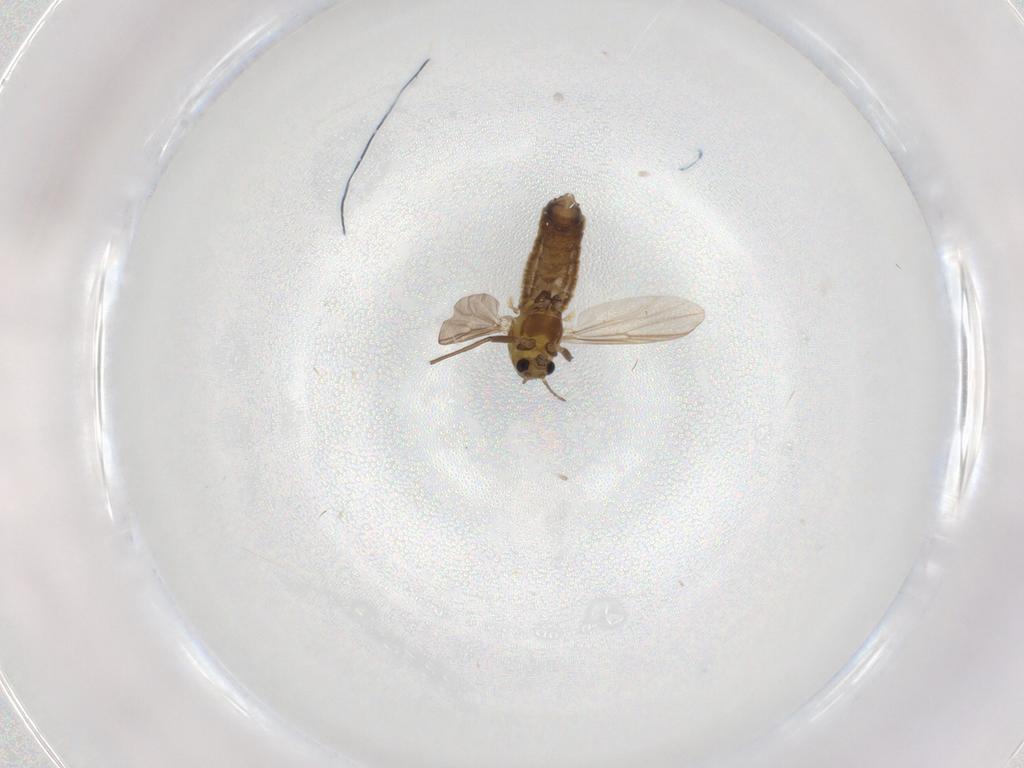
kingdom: Animalia
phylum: Arthropoda
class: Insecta
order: Diptera
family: Chironomidae
